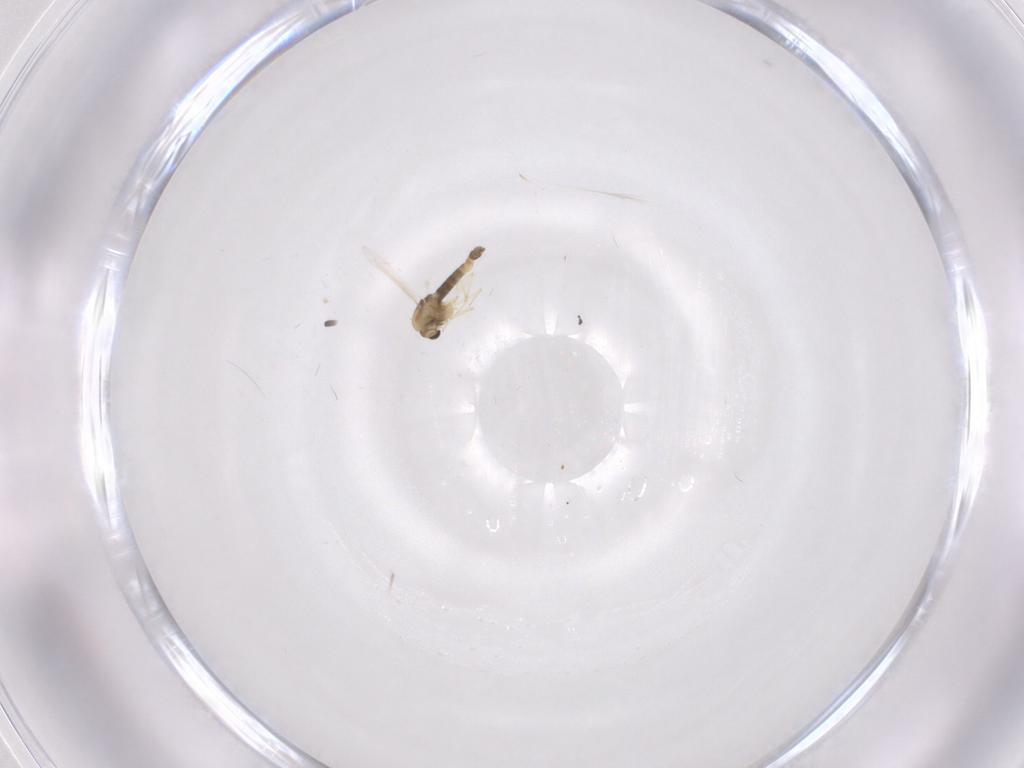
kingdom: Animalia
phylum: Arthropoda
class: Insecta
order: Diptera
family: Chironomidae
